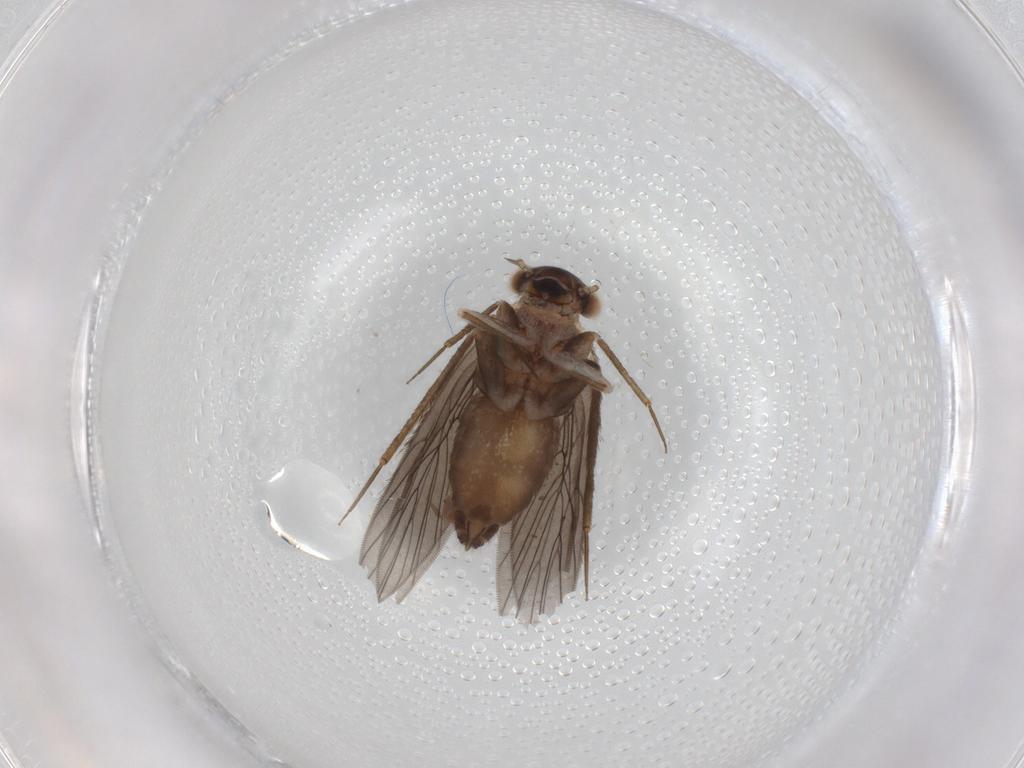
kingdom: Animalia
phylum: Arthropoda
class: Insecta
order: Psocodea
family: Lepidopsocidae
